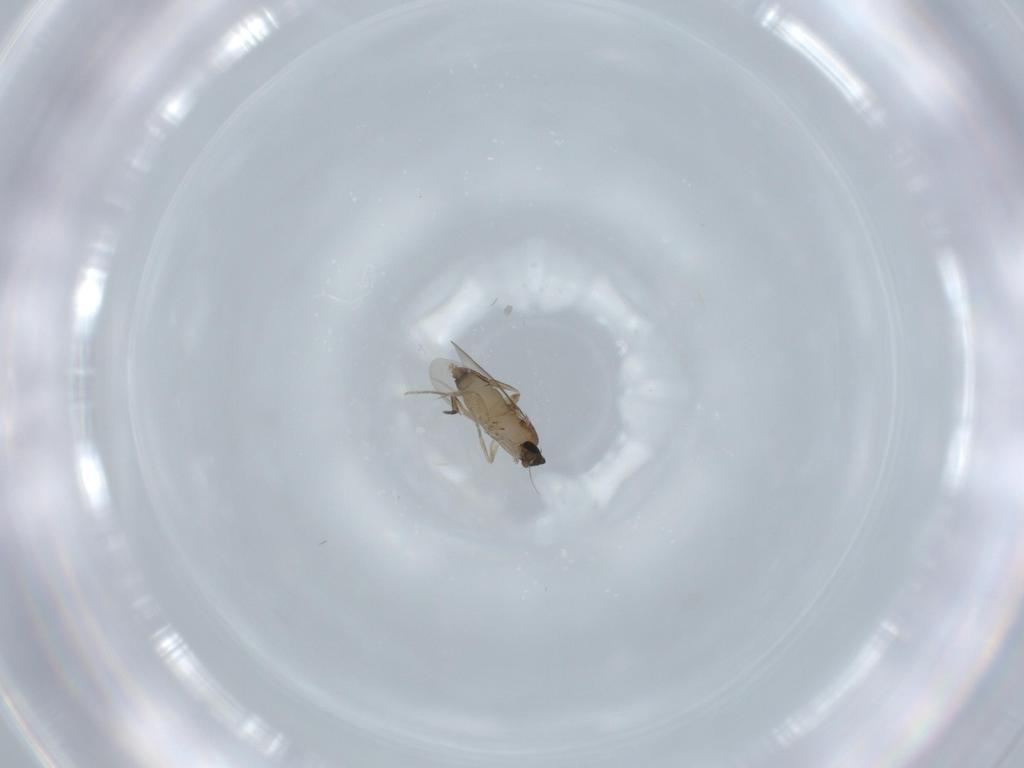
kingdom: Animalia
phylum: Arthropoda
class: Insecta
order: Diptera
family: Phoridae
